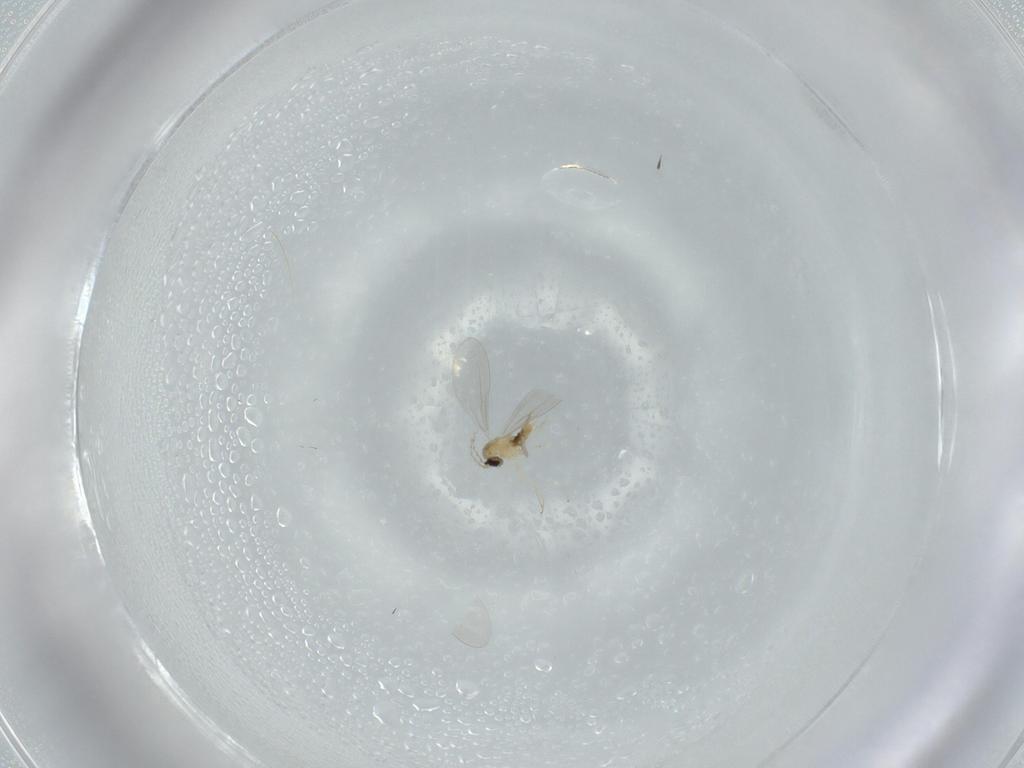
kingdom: Animalia
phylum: Arthropoda
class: Insecta
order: Diptera
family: Cecidomyiidae
